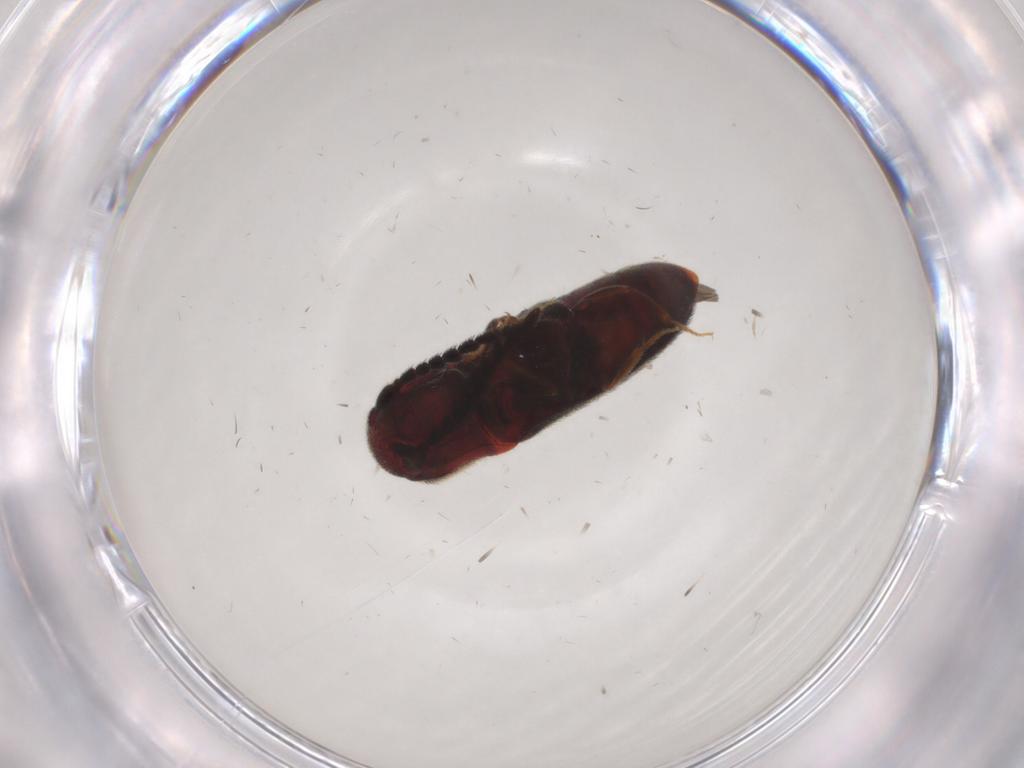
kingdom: Animalia
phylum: Arthropoda
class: Insecta
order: Coleoptera
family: Eucnemidae
